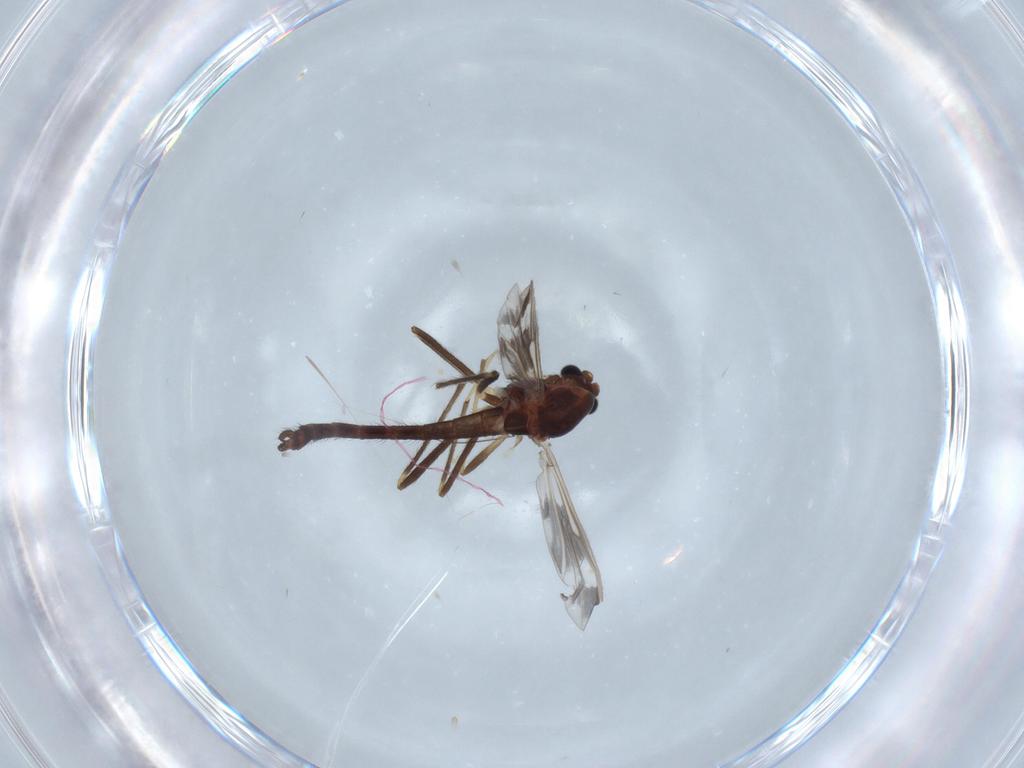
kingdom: Animalia
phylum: Arthropoda
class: Insecta
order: Diptera
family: Chironomidae
